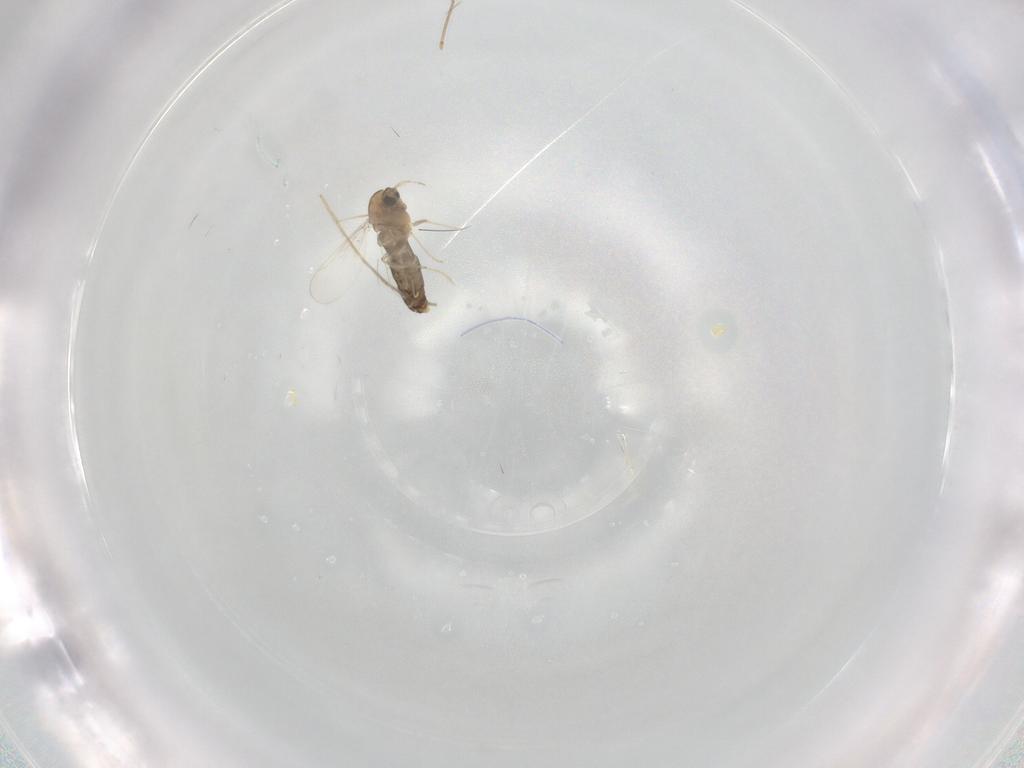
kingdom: Animalia
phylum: Arthropoda
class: Insecta
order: Diptera
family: Chironomidae
